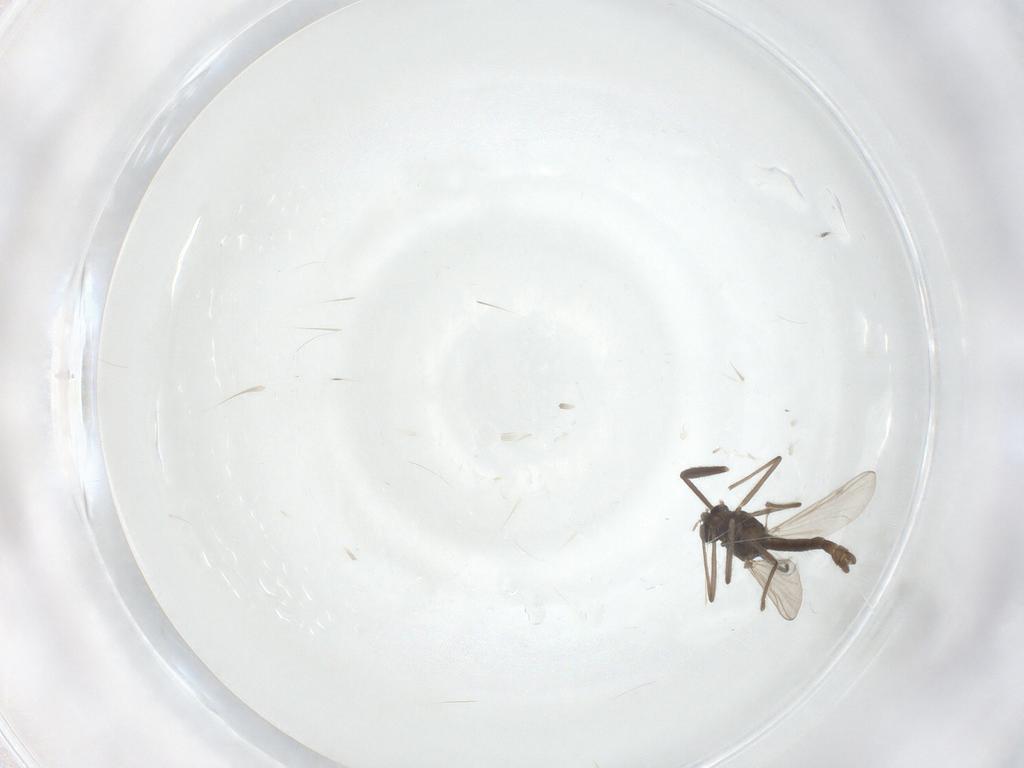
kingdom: Animalia
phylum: Arthropoda
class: Insecta
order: Diptera
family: Chironomidae
